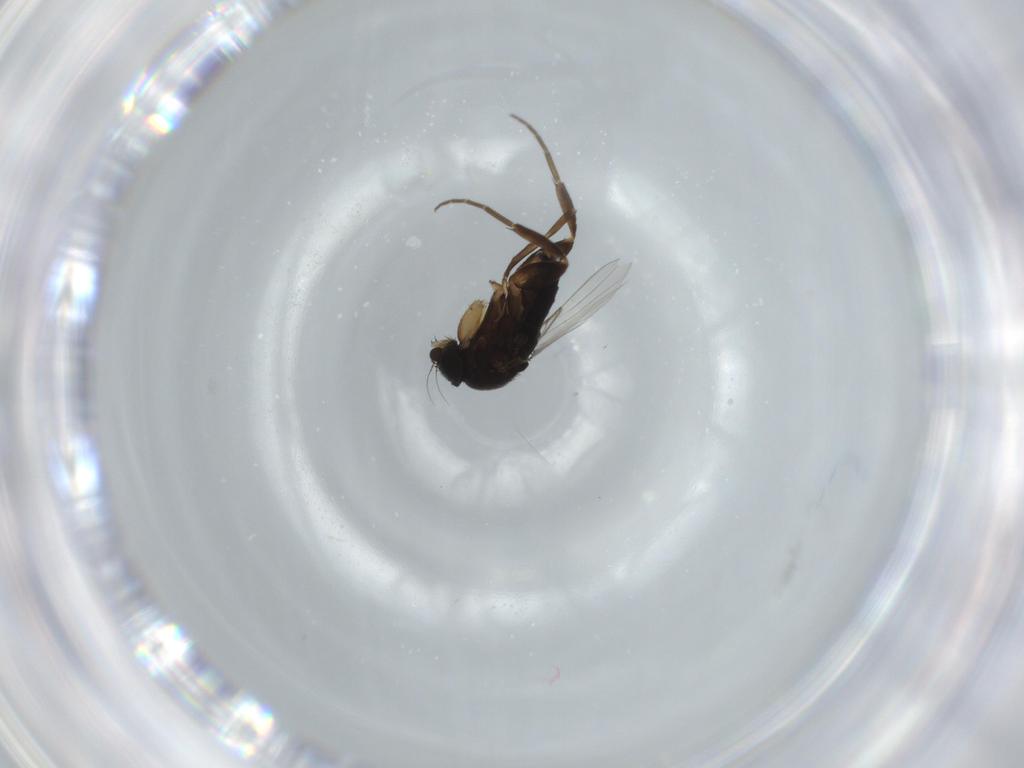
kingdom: Animalia
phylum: Arthropoda
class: Insecta
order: Diptera
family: Phoridae
